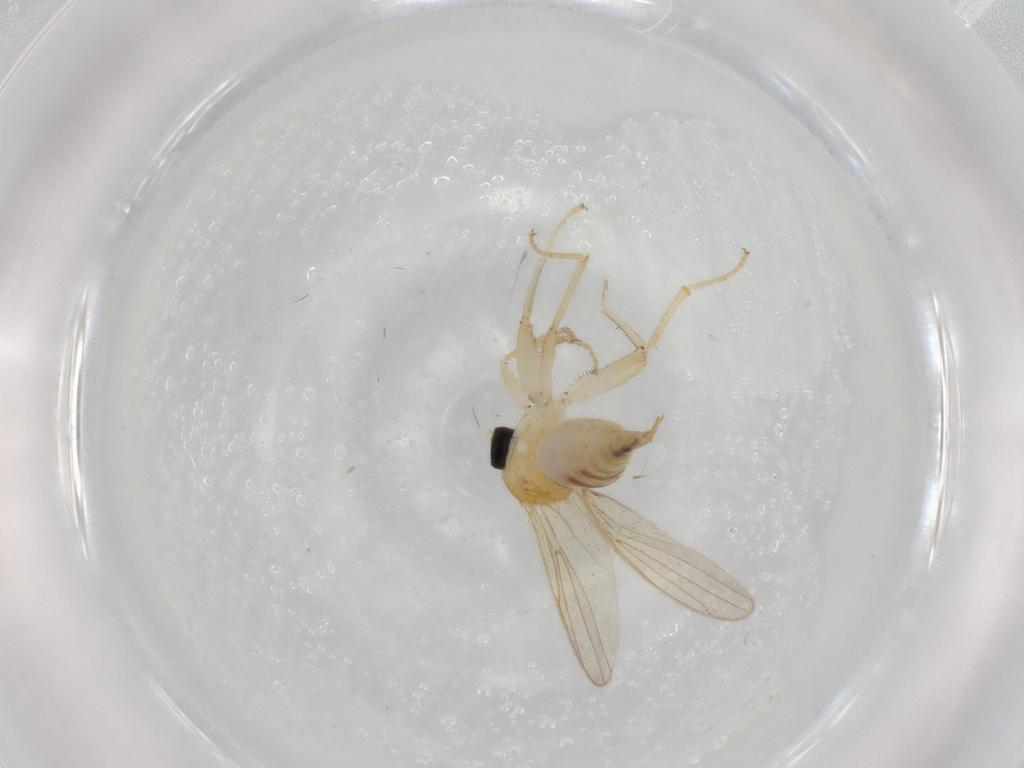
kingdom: Animalia
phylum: Arthropoda
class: Insecta
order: Diptera
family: Hybotidae
